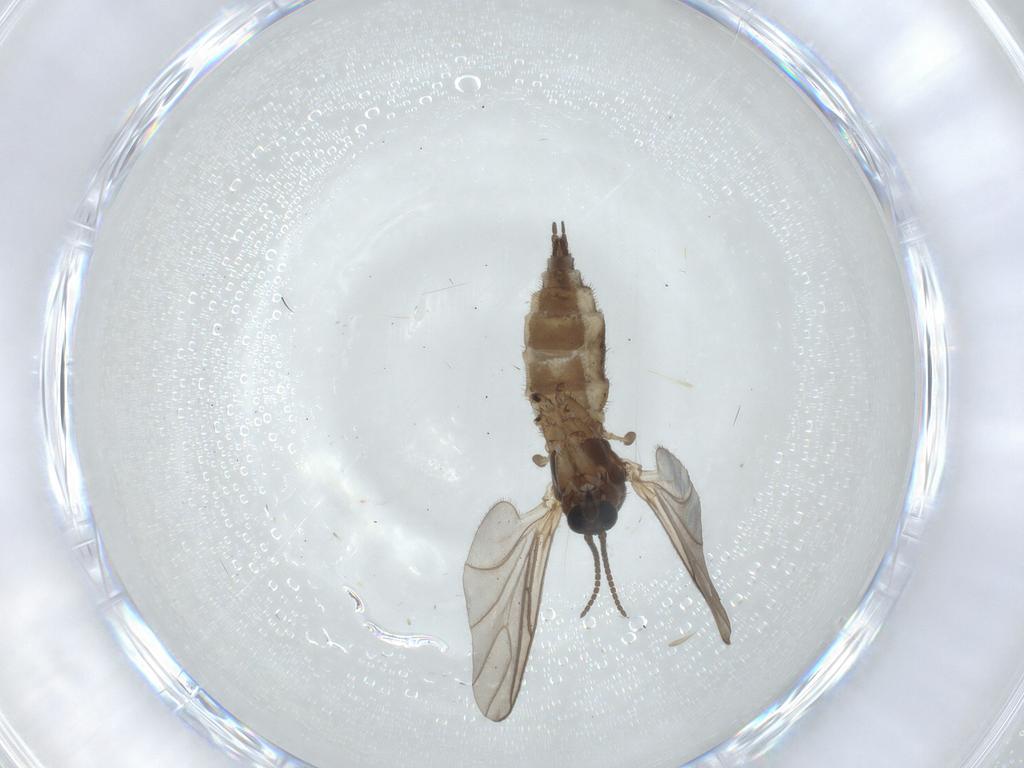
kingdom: Animalia
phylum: Arthropoda
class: Insecta
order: Diptera
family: Sciaridae
